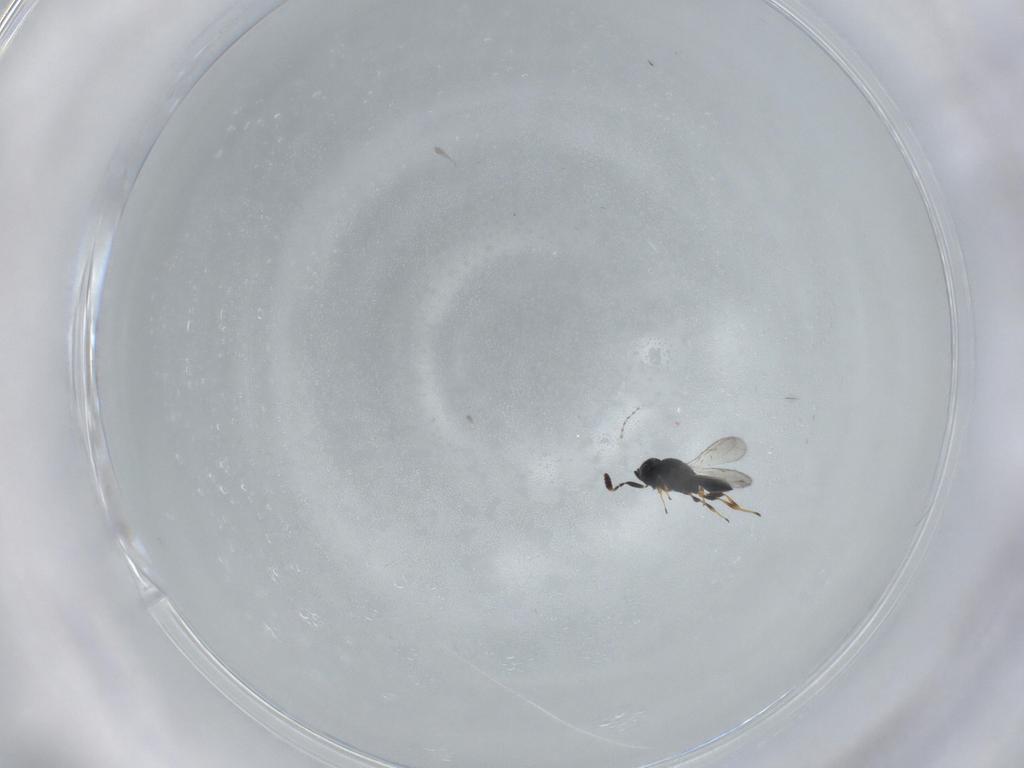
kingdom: Animalia
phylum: Arthropoda
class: Insecta
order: Hymenoptera
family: Scelionidae
